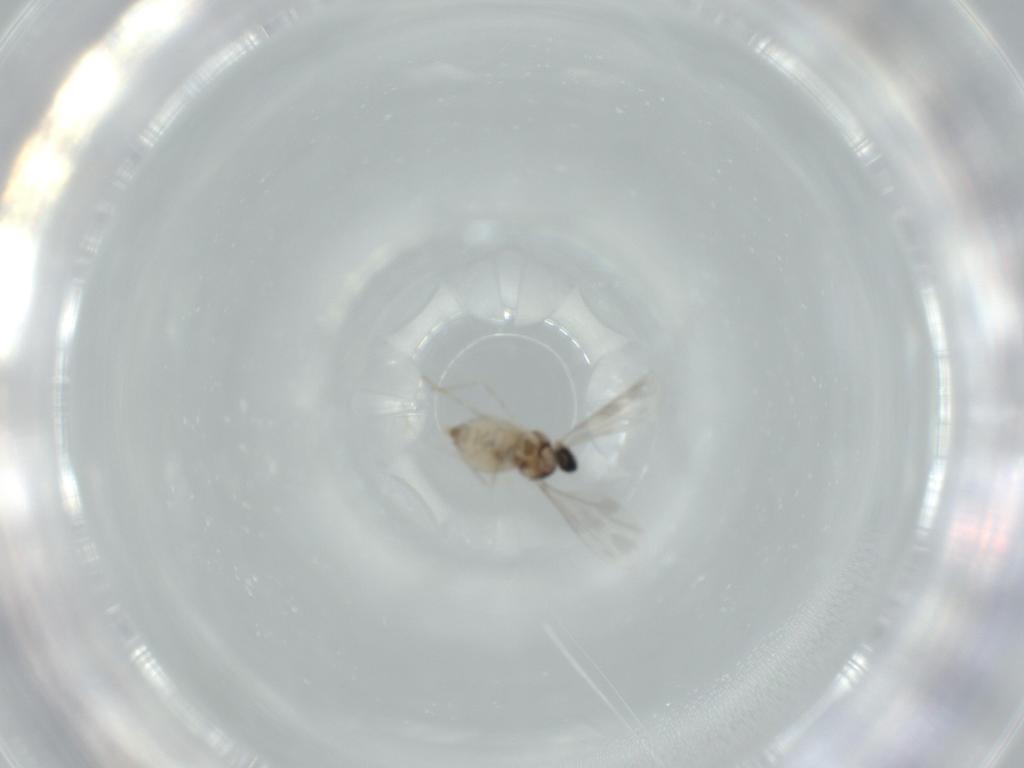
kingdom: Animalia
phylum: Arthropoda
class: Insecta
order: Diptera
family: Cecidomyiidae
